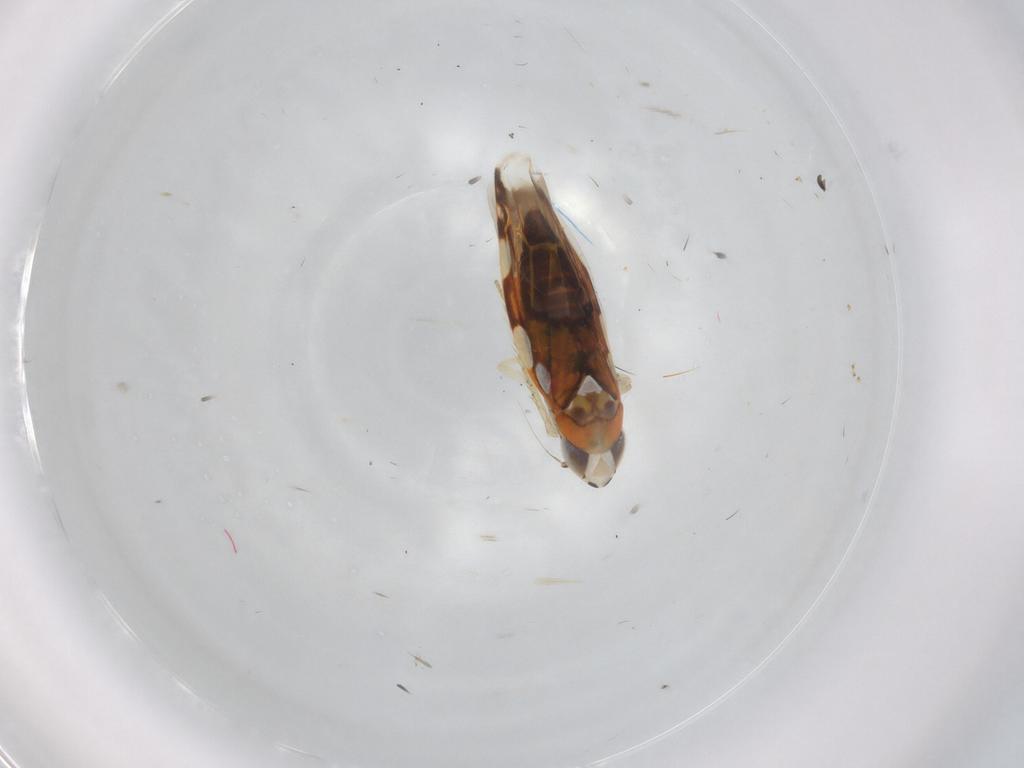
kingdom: Animalia
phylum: Arthropoda
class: Insecta
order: Hemiptera
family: Cicadellidae
